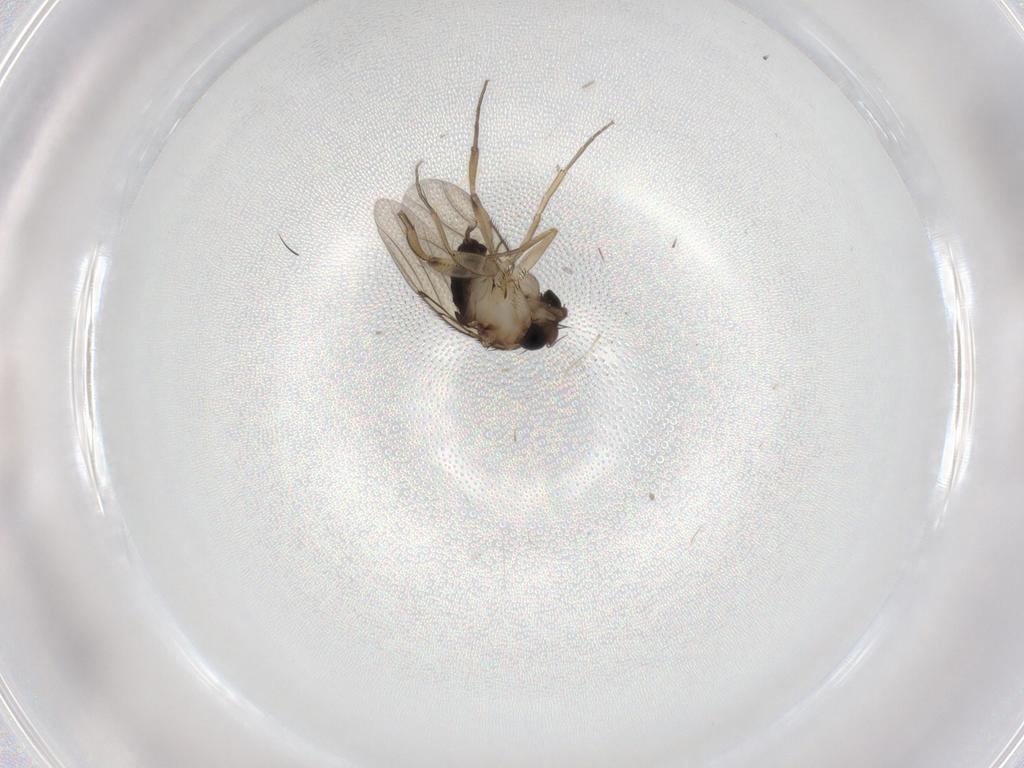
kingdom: Animalia
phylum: Arthropoda
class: Insecta
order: Diptera
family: Phoridae
